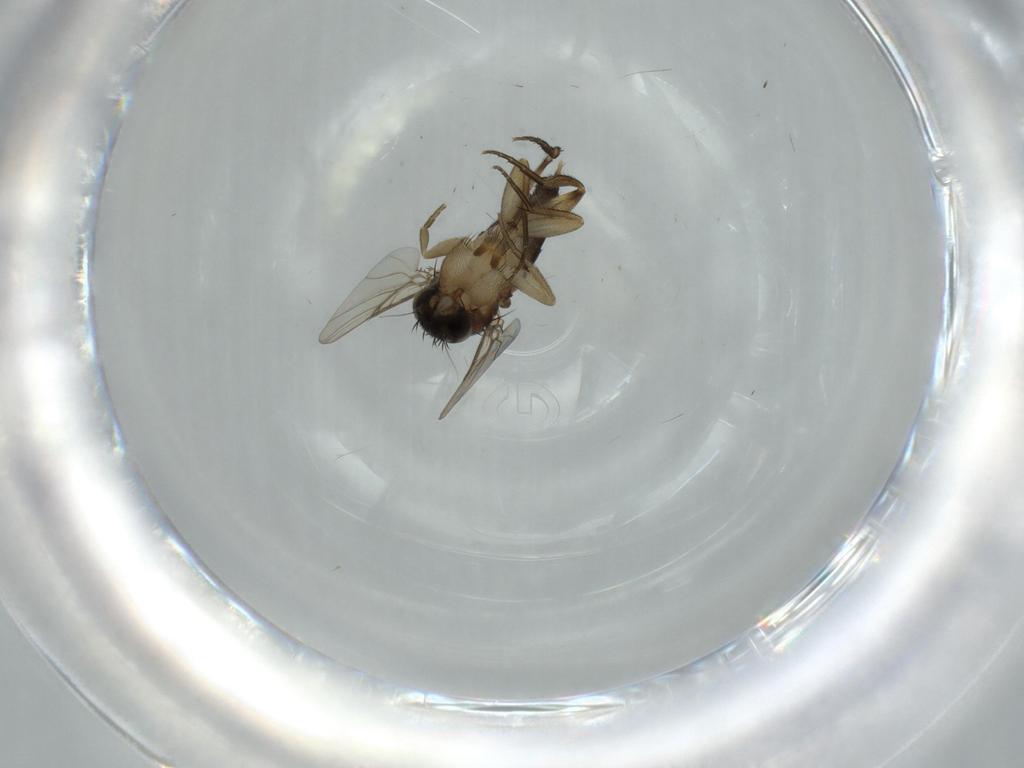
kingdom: Animalia
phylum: Arthropoda
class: Insecta
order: Diptera
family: Phoridae
